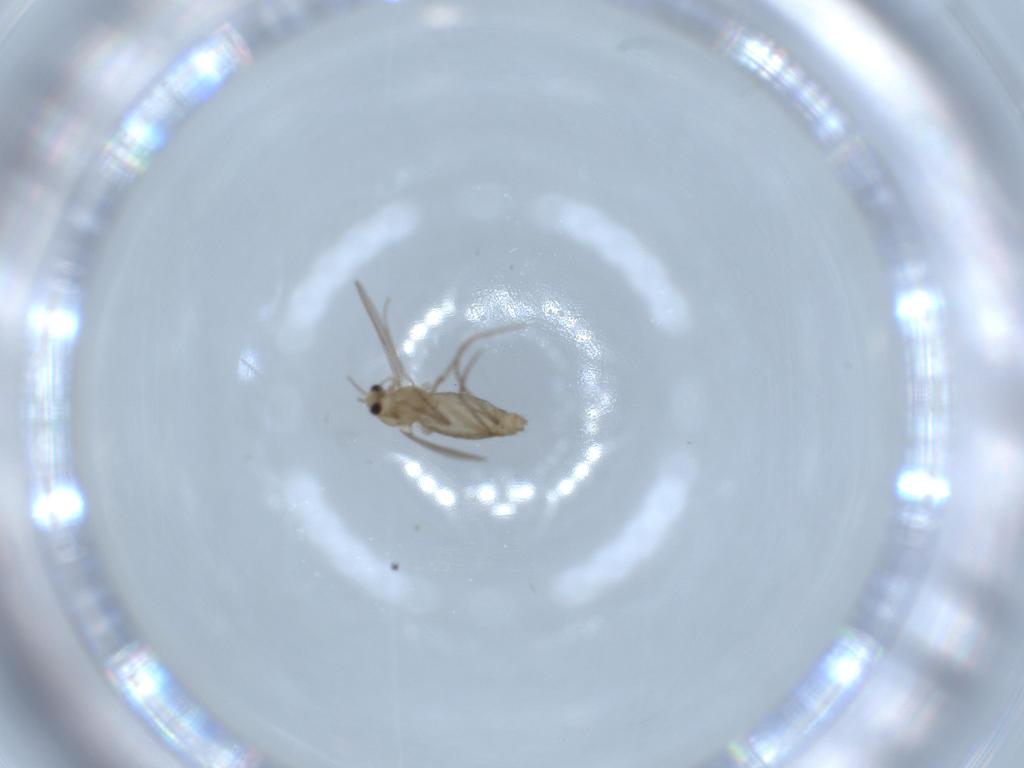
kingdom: Animalia
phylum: Arthropoda
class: Insecta
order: Diptera
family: Chironomidae
